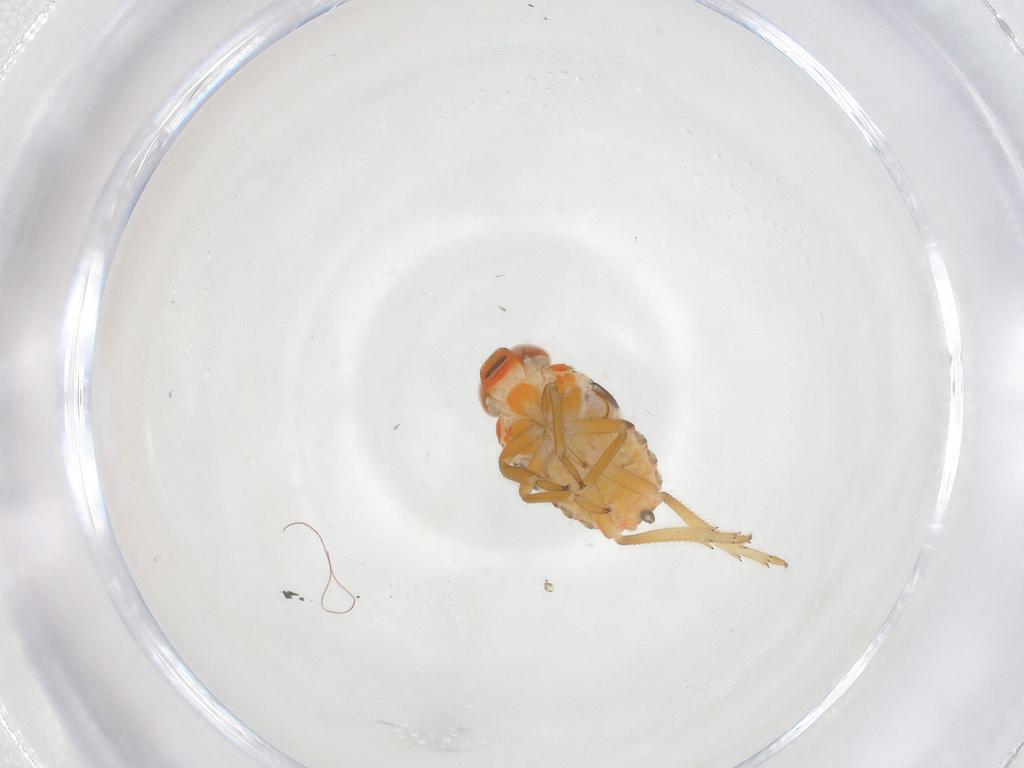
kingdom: Animalia
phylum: Arthropoda
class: Insecta
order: Hemiptera
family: Issidae
